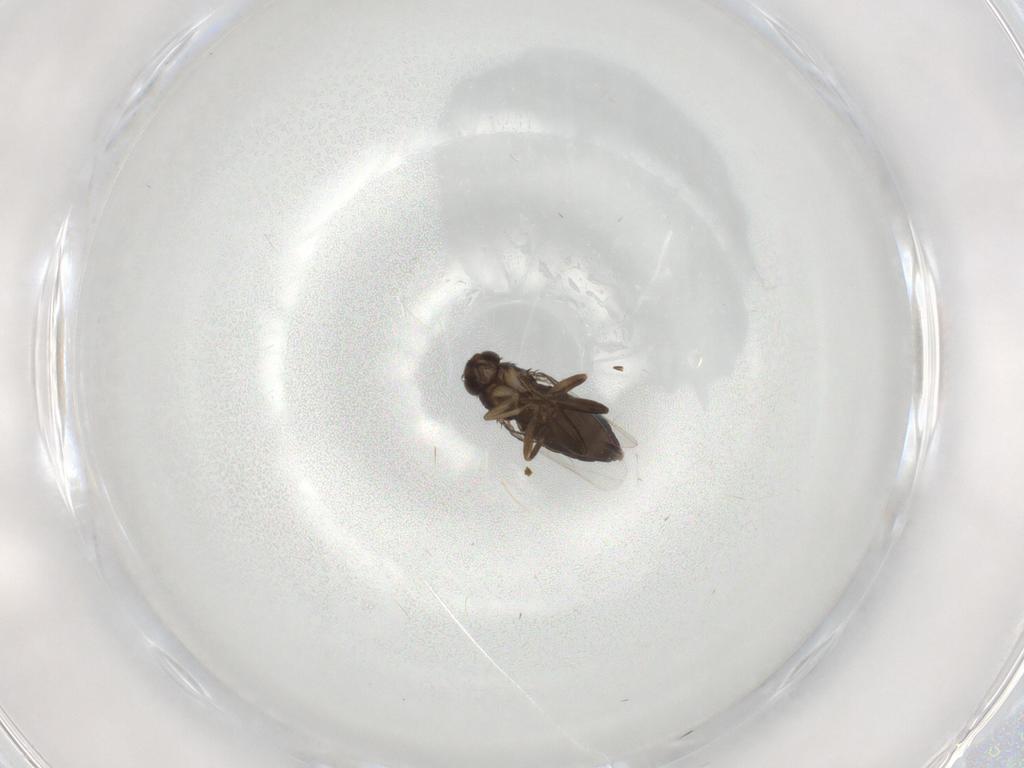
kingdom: Animalia
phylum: Arthropoda
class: Insecta
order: Diptera
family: Phoridae
